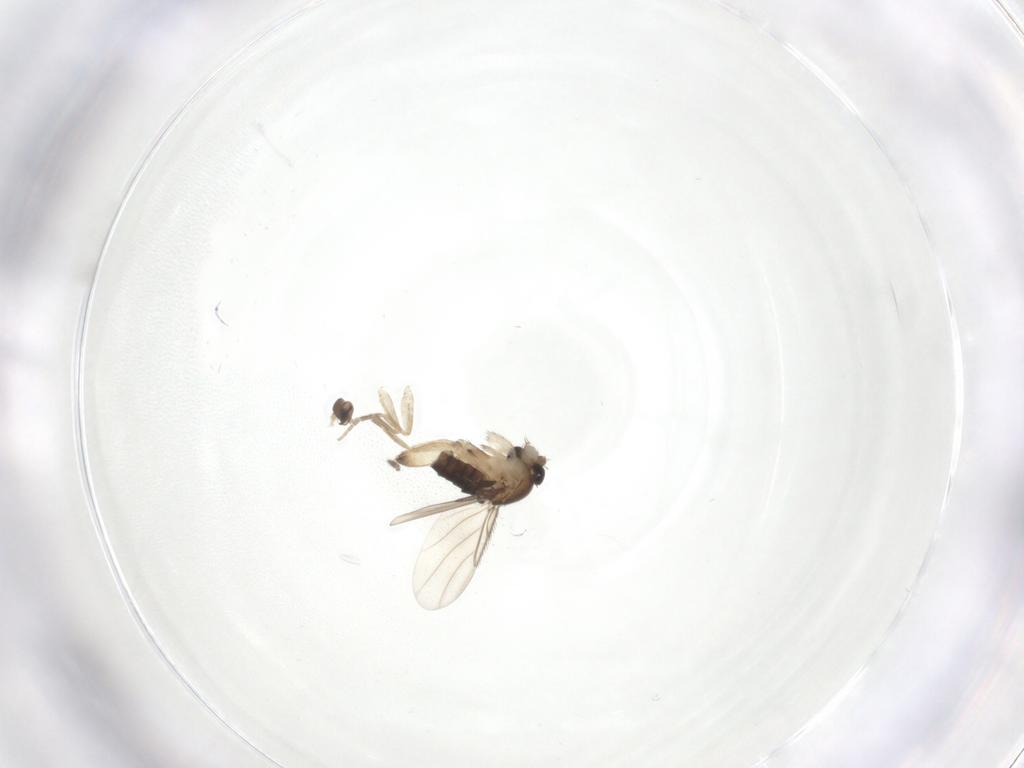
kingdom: Animalia
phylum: Arthropoda
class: Insecta
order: Diptera
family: Phoridae
